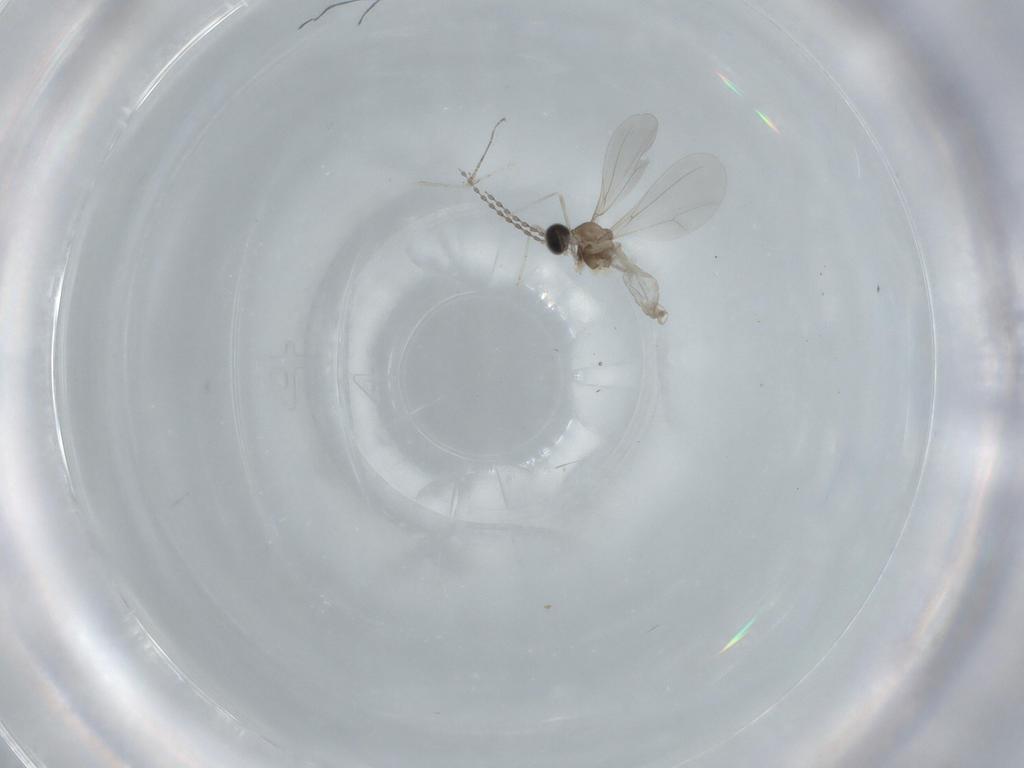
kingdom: Animalia
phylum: Arthropoda
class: Insecta
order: Diptera
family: Cecidomyiidae
